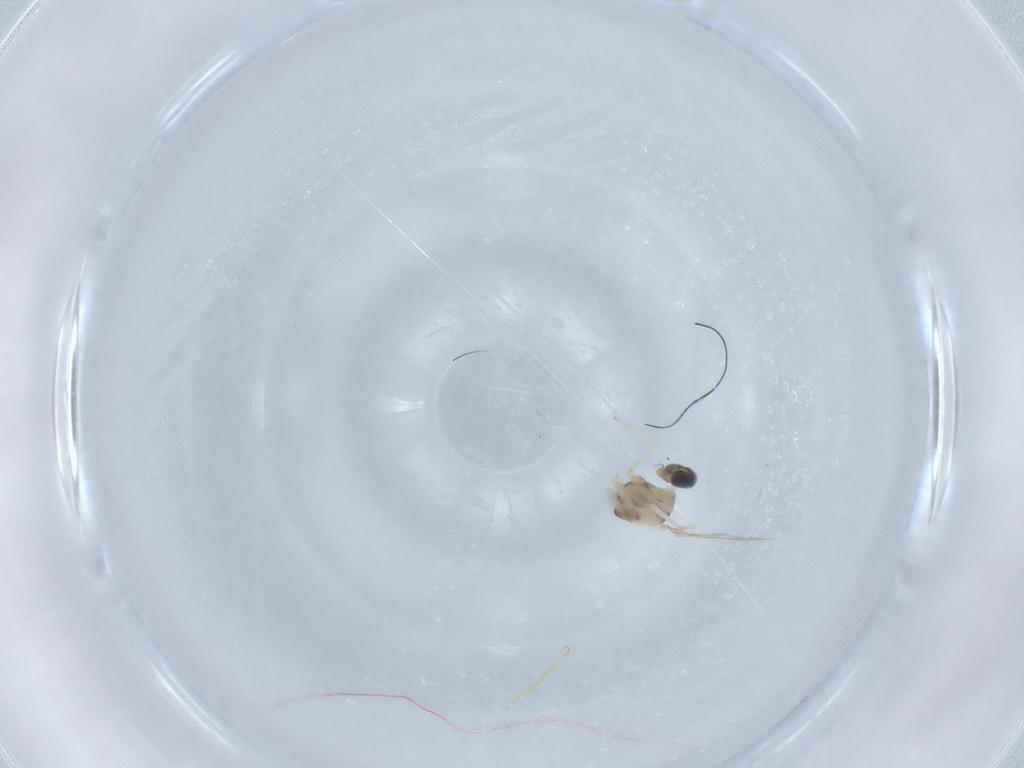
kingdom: Animalia
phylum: Arthropoda
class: Insecta
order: Diptera
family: Cecidomyiidae
